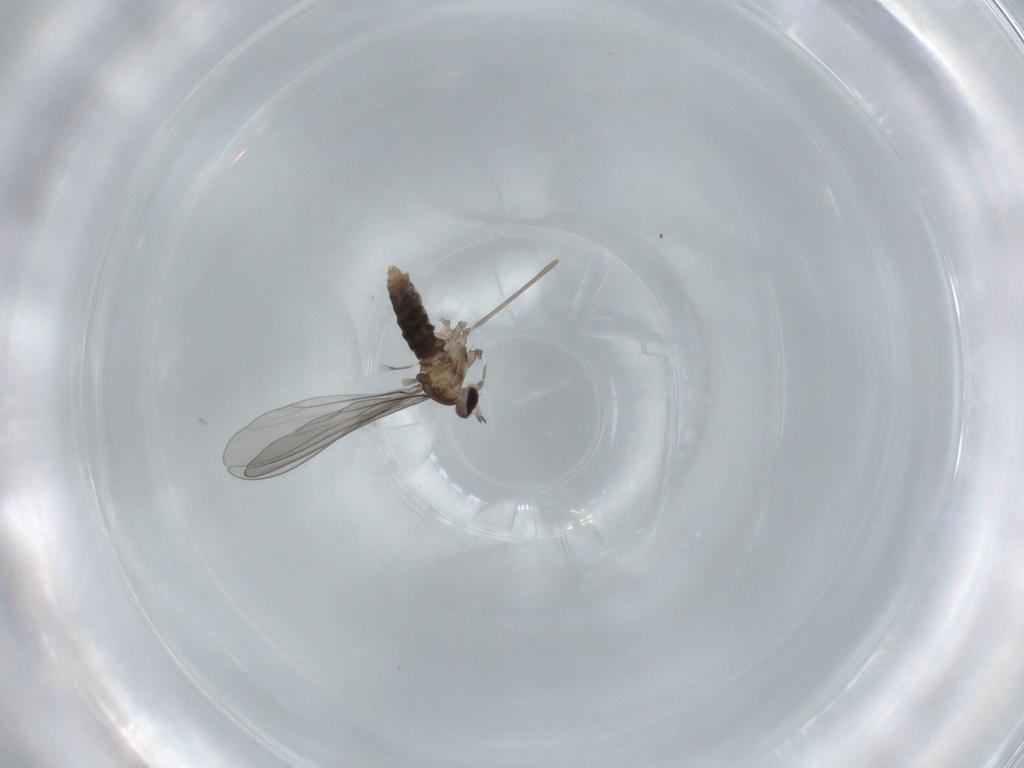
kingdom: Animalia
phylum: Arthropoda
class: Insecta
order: Diptera
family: Cecidomyiidae
